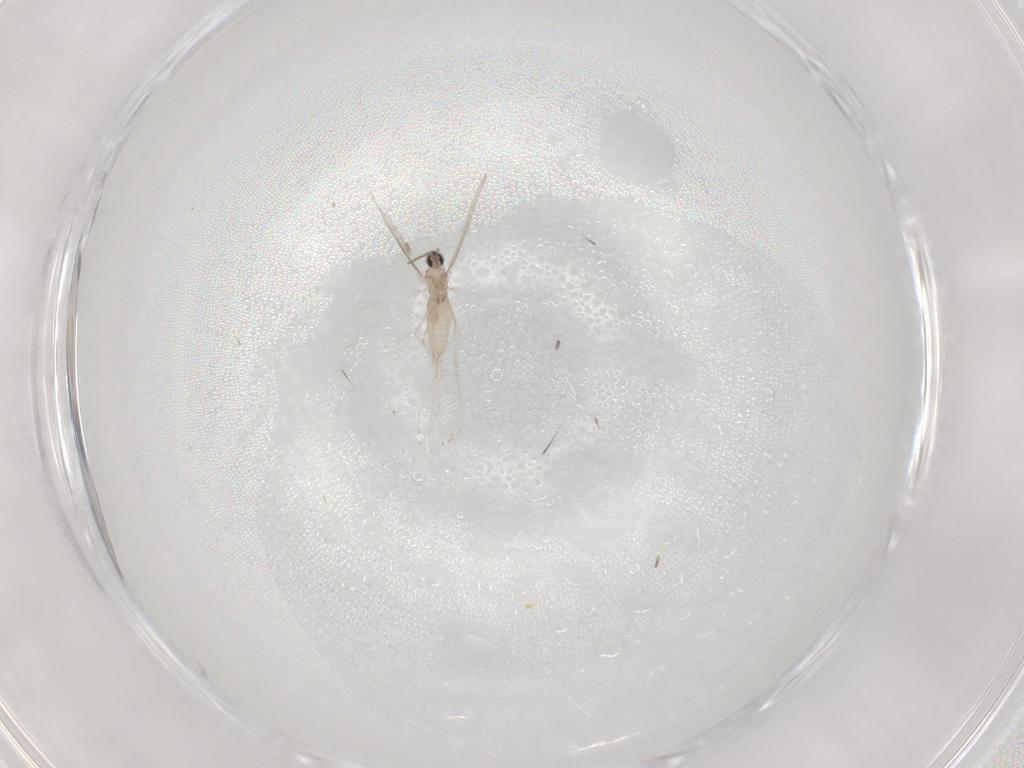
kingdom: Animalia
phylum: Arthropoda
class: Insecta
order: Diptera
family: Cecidomyiidae
